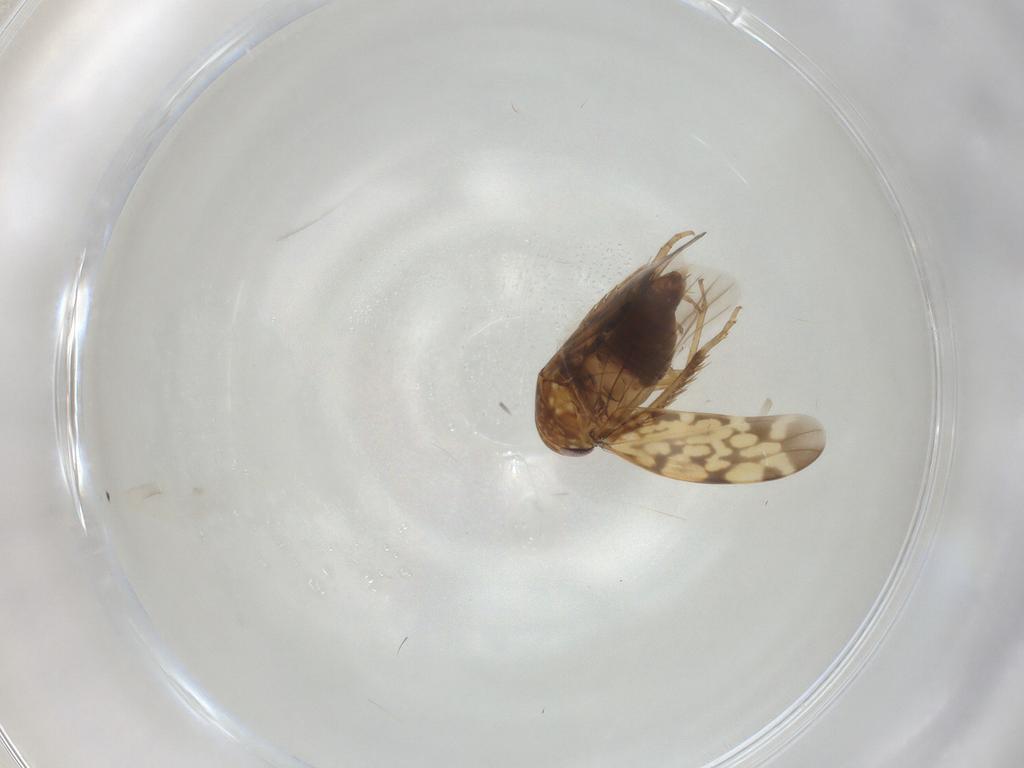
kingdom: Animalia
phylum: Arthropoda
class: Insecta
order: Hemiptera
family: Cicadellidae
